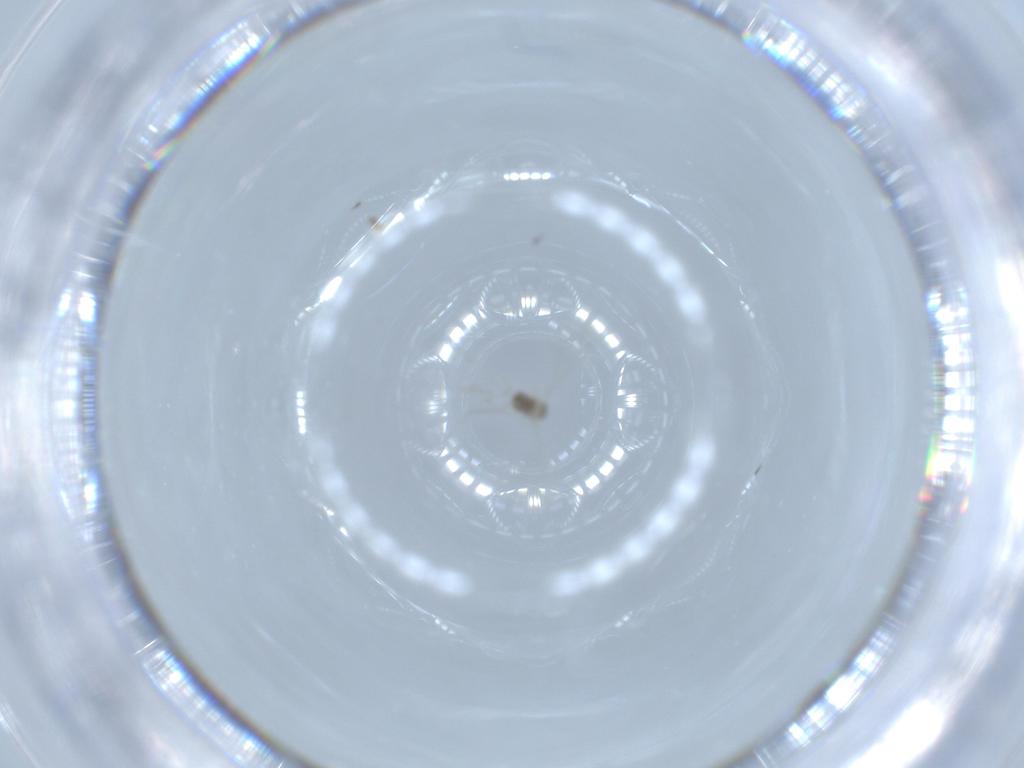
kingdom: Animalia
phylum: Arthropoda
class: Insecta
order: Diptera
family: Cecidomyiidae
